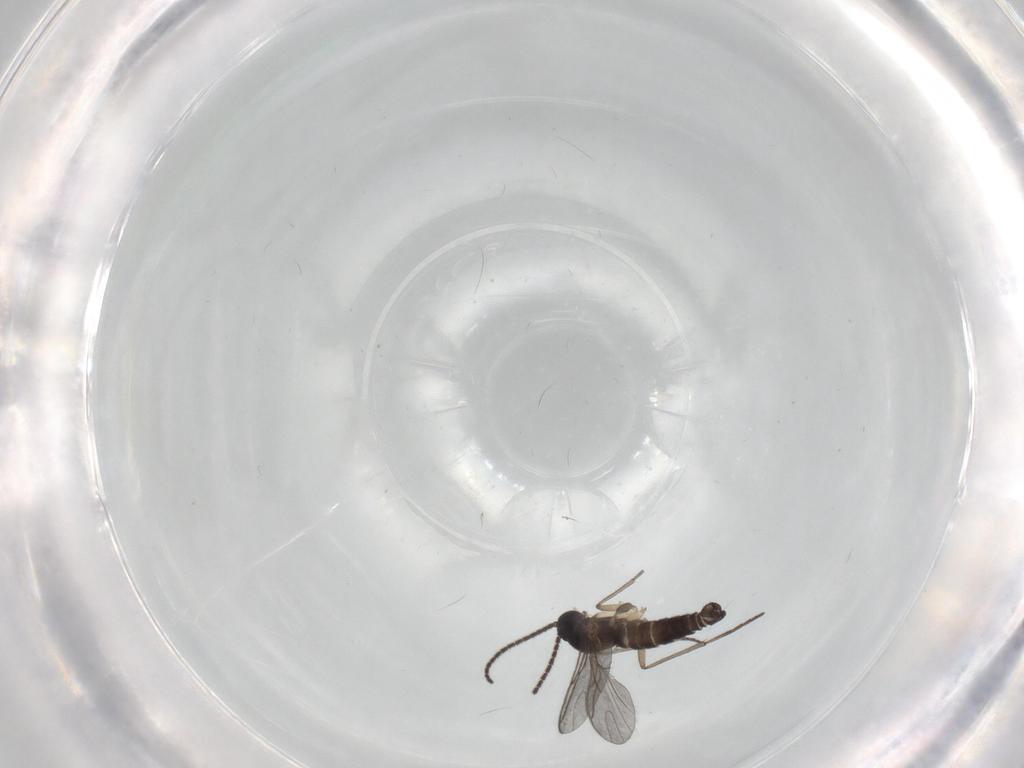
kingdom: Animalia
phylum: Arthropoda
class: Insecta
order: Diptera
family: Sciaridae
